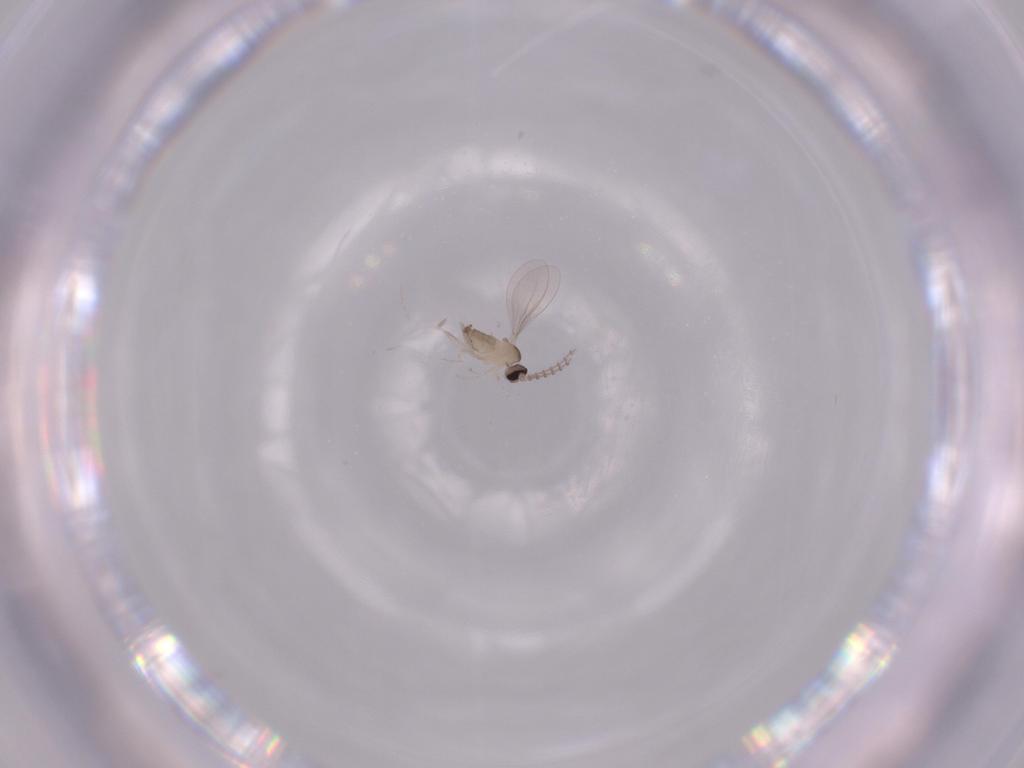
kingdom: Animalia
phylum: Arthropoda
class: Insecta
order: Diptera
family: Cecidomyiidae
